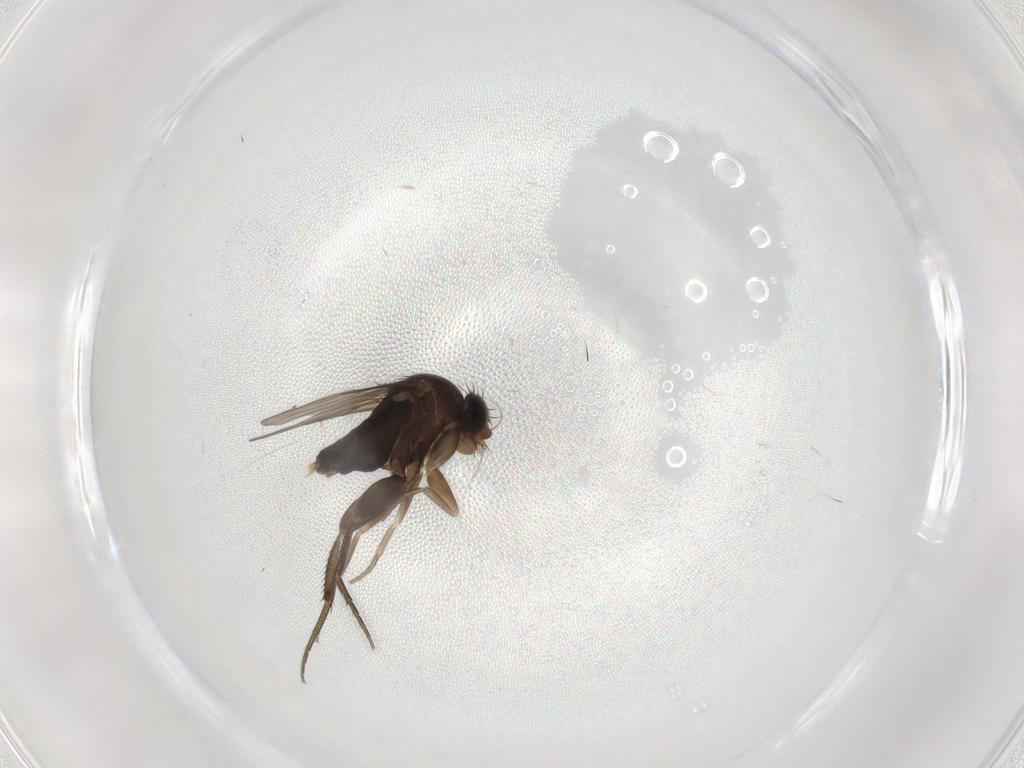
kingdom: Animalia
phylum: Arthropoda
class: Insecta
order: Diptera
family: Phoridae
